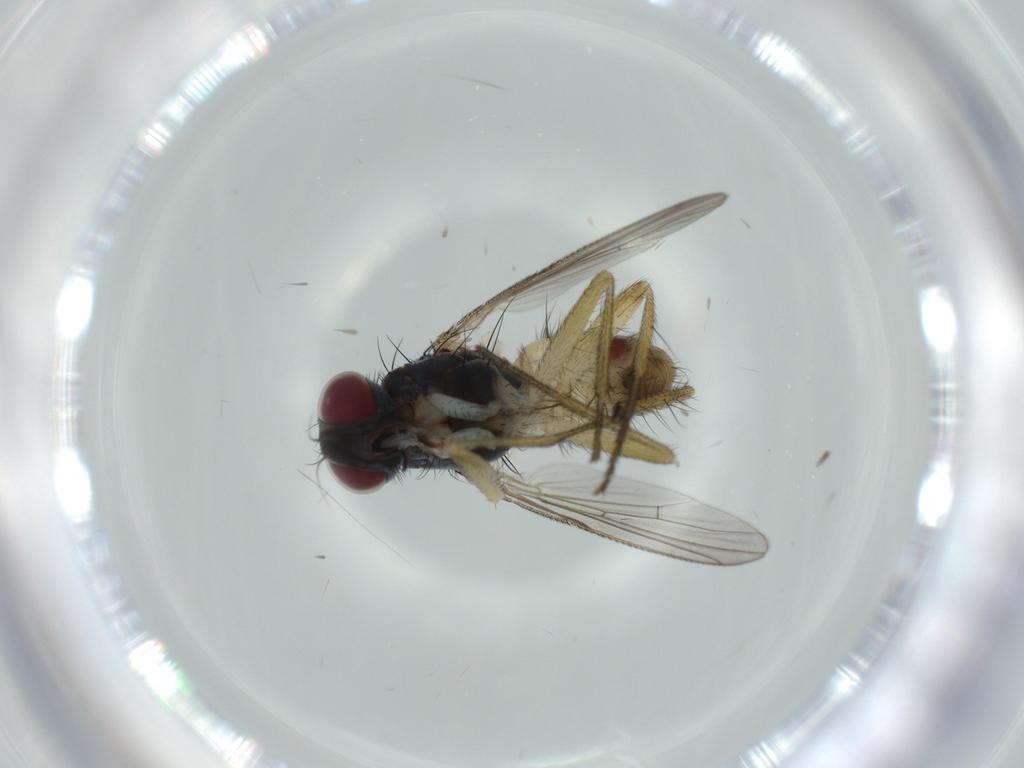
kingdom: Animalia
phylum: Arthropoda
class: Insecta
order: Diptera
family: Muscidae
